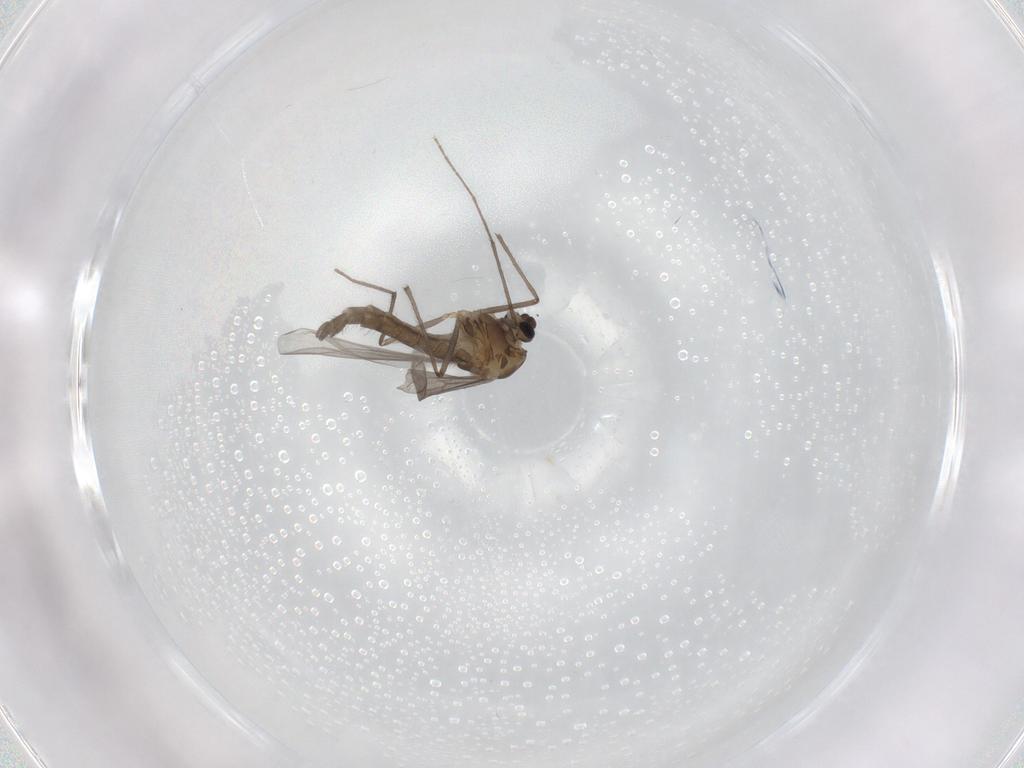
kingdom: Animalia
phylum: Arthropoda
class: Insecta
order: Diptera
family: Chironomidae
